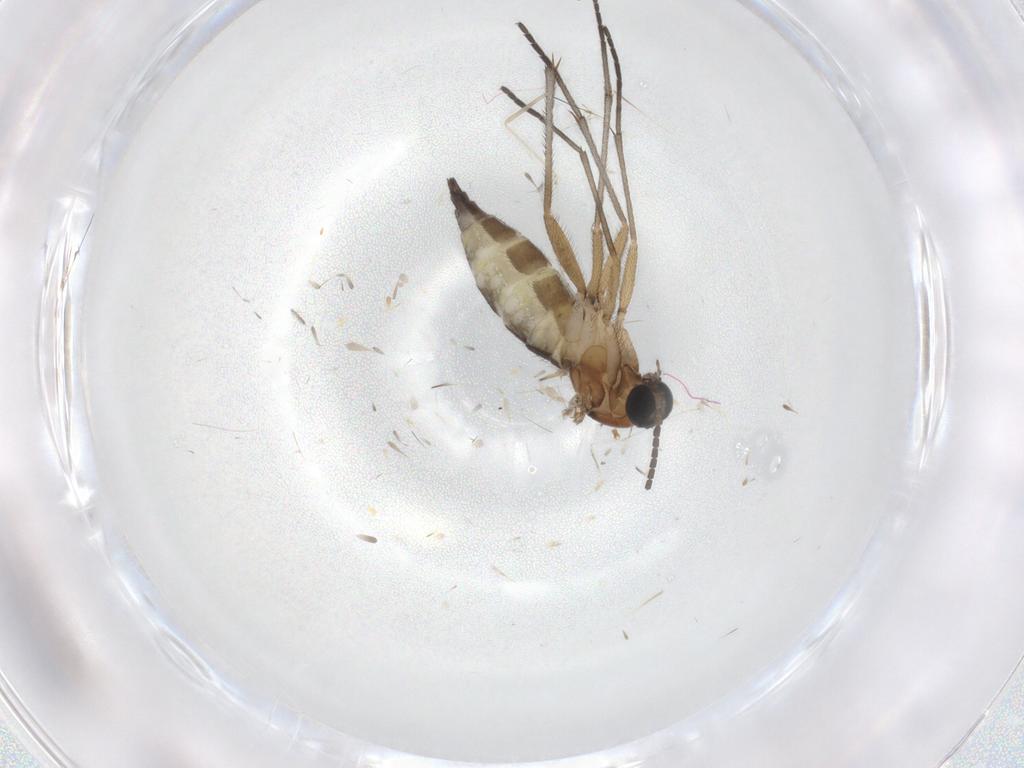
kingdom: Animalia
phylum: Arthropoda
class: Insecta
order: Diptera
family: Sciaridae
